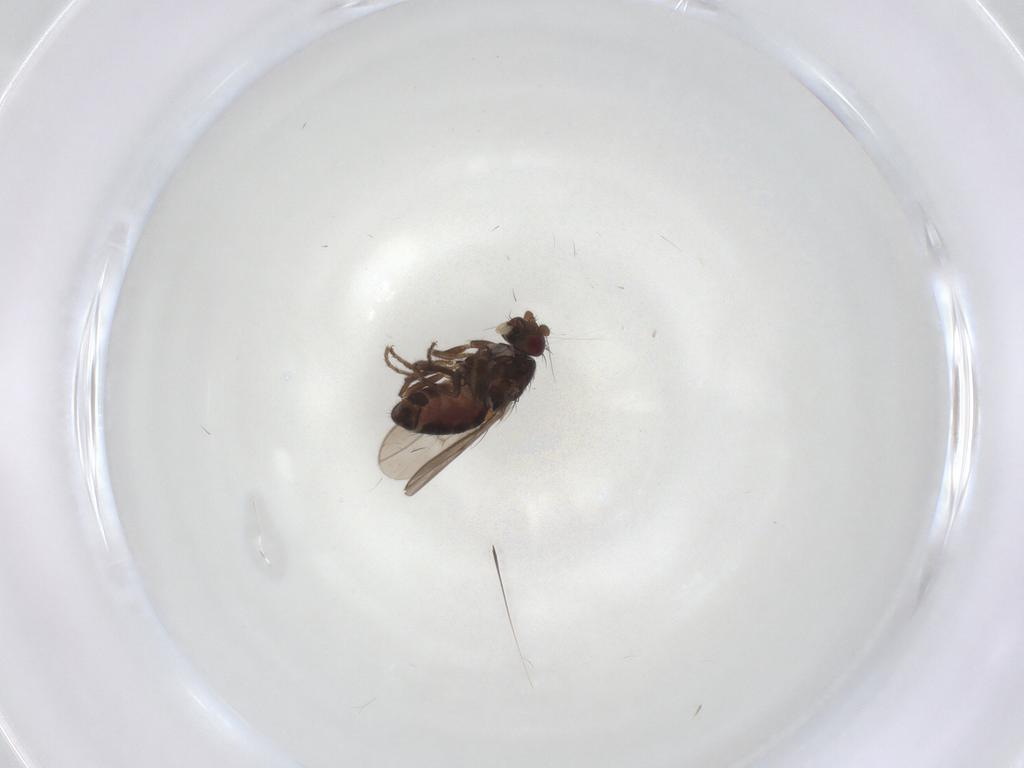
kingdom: Animalia
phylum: Arthropoda
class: Insecta
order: Diptera
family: Sphaeroceridae
